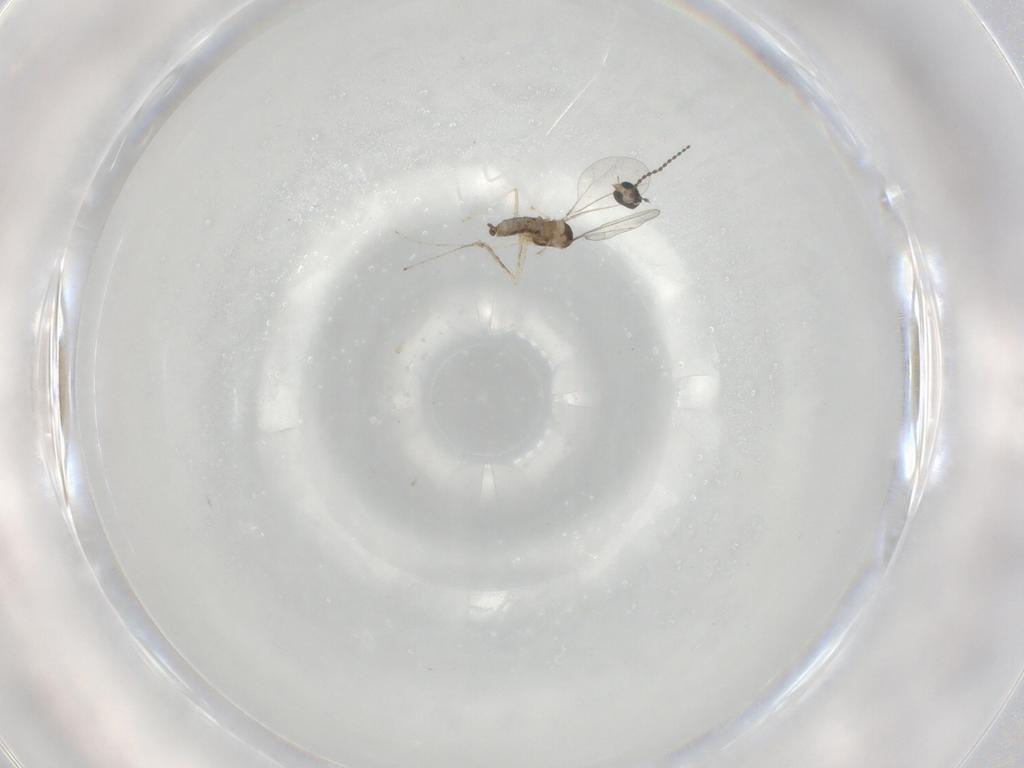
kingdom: Animalia
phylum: Arthropoda
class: Insecta
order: Diptera
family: Cecidomyiidae
